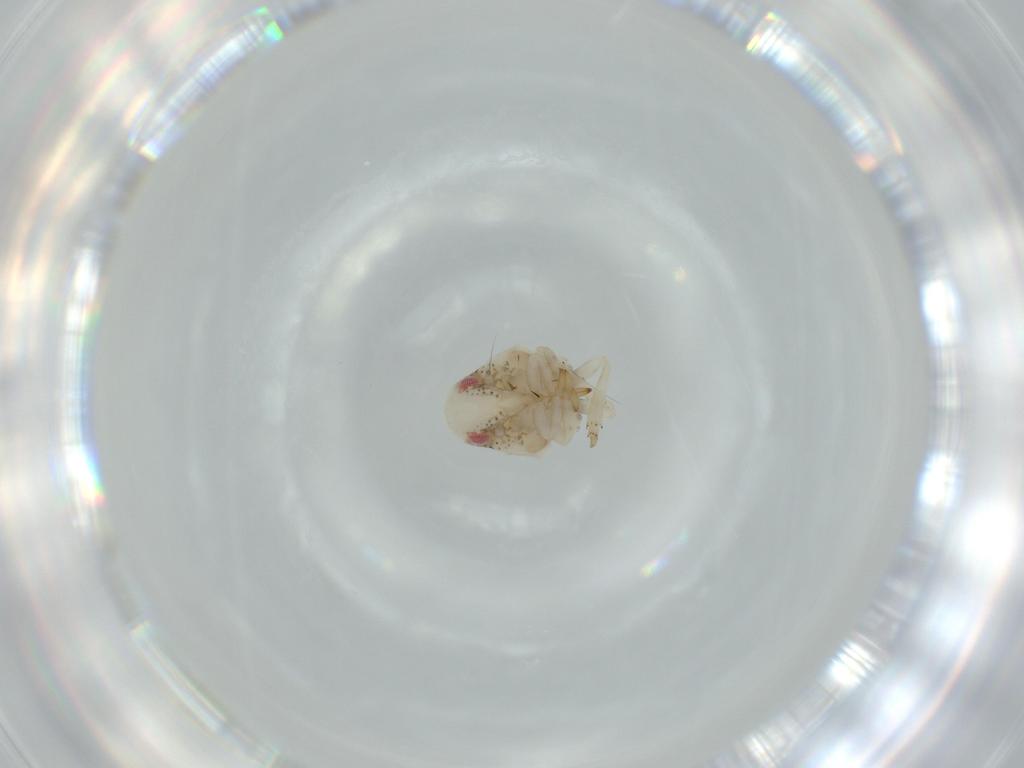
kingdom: Animalia
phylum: Arthropoda
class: Insecta
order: Hemiptera
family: Acanaloniidae
